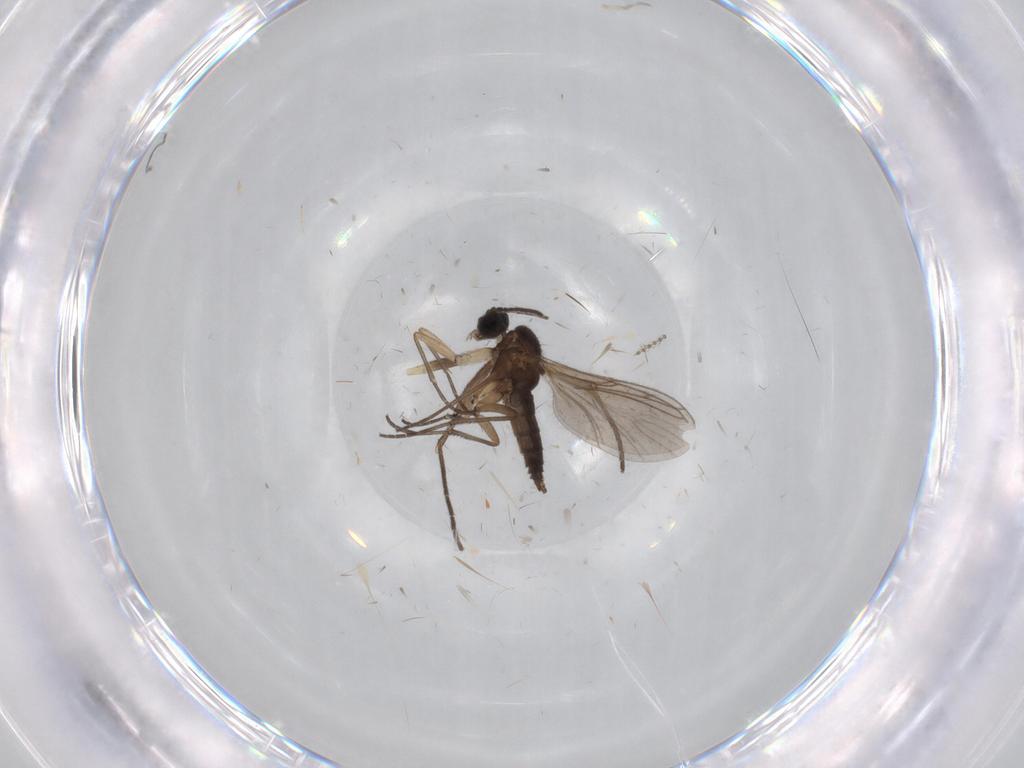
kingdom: Animalia
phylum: Arthropoda
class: Insecta
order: Diptera
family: Sciaridae
